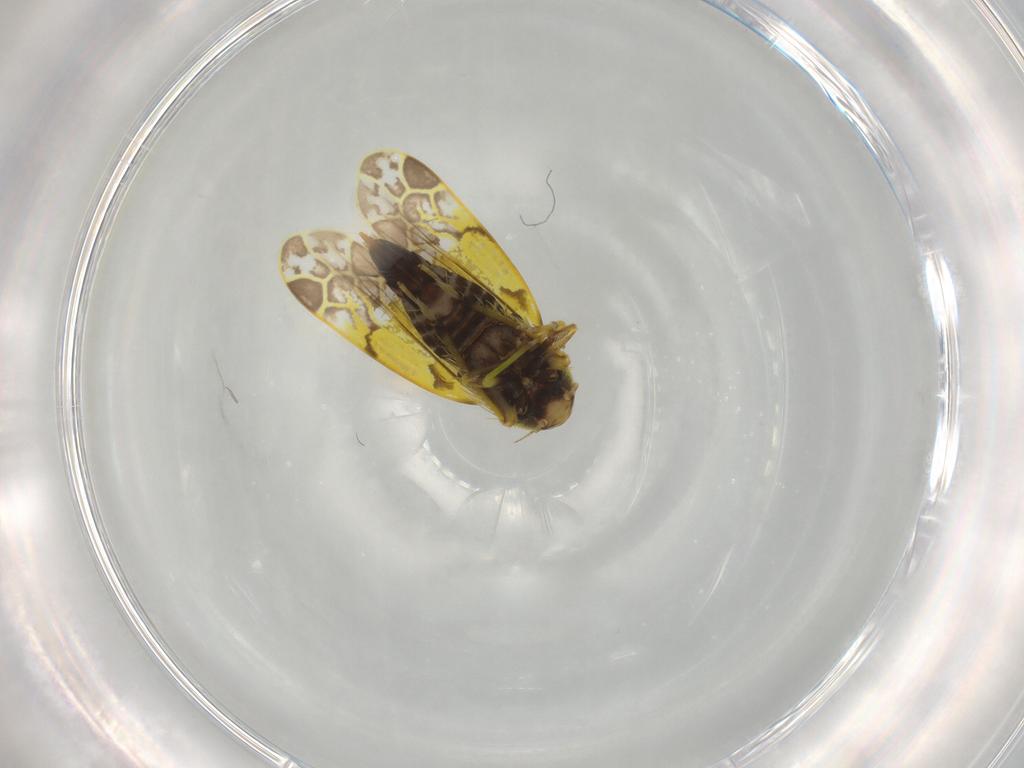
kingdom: Animalia
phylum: Arthropoda
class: Insecta
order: Hemiptera
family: Cicadellidae
